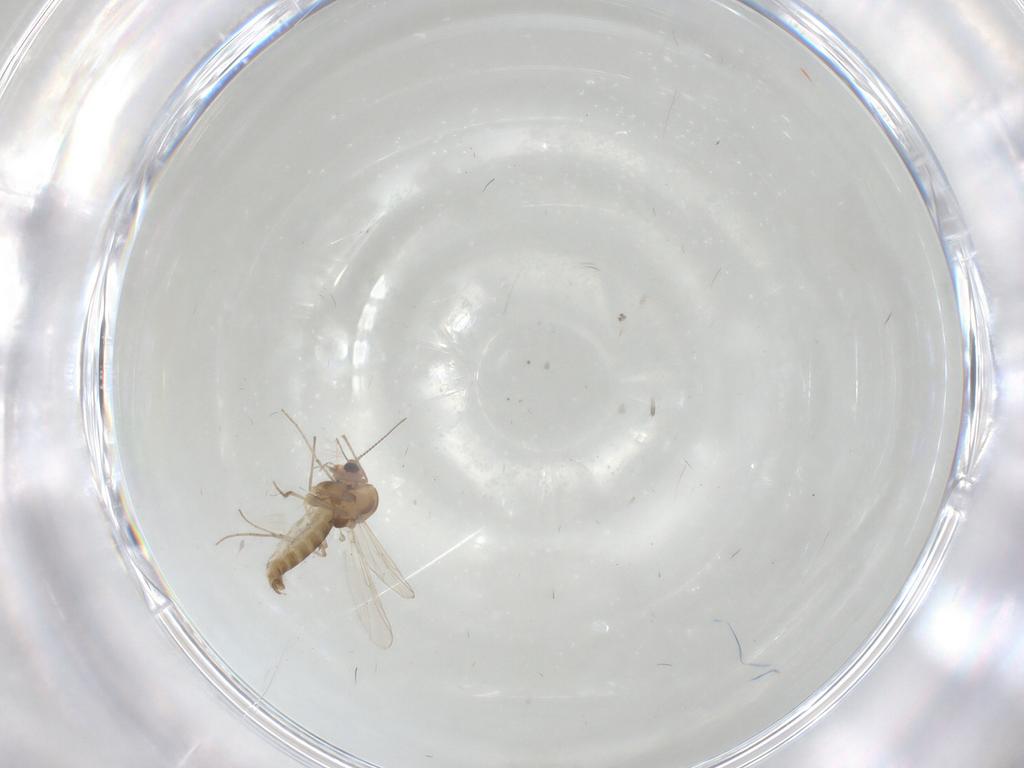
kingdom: Animalia
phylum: Arthropoda
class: Insecta
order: Diptera
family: Chironomidae
